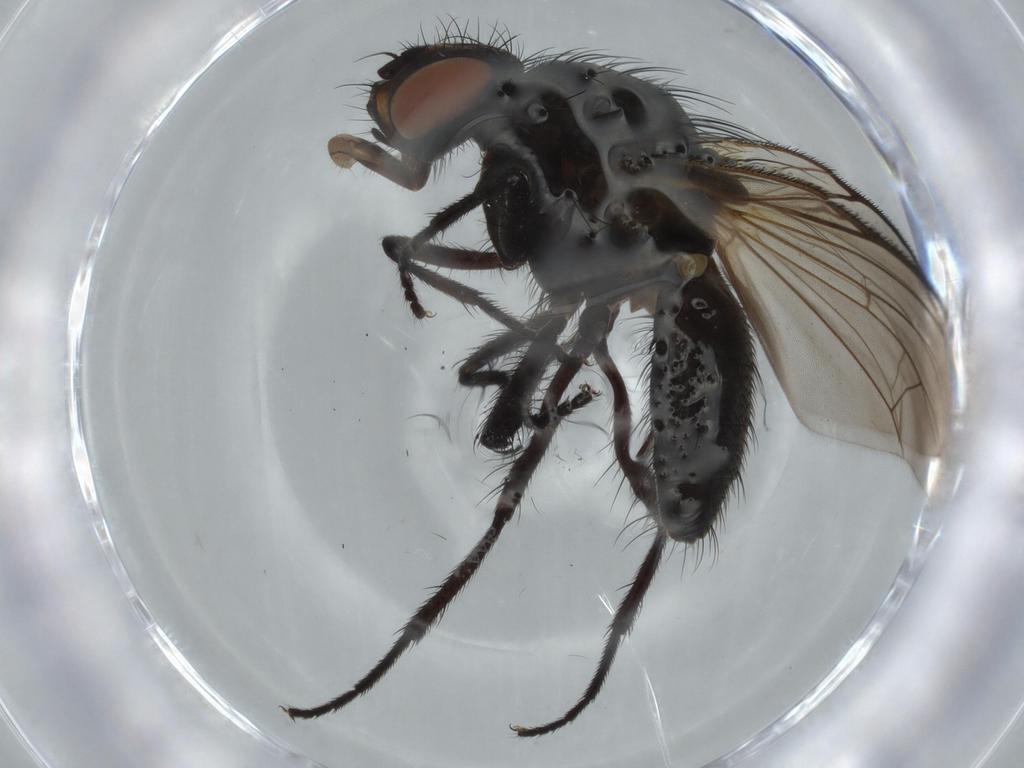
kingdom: Animalia
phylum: Arthropoda
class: Insecta
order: Diptera
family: Sciaridae
